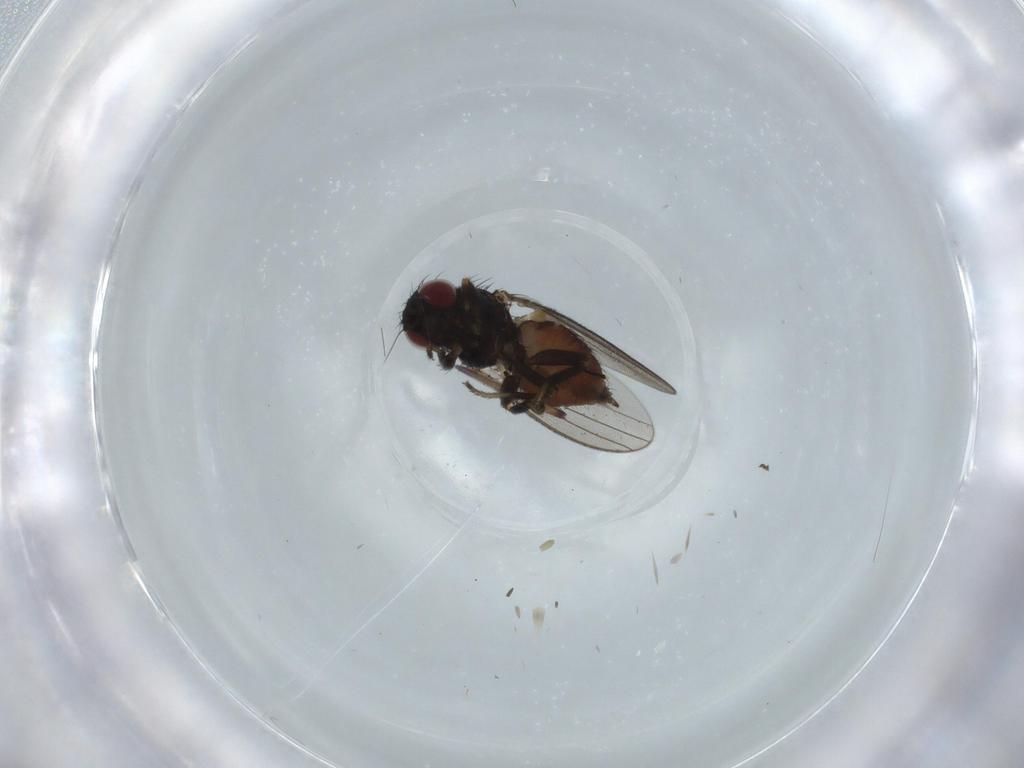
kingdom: Animalia
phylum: Arthropoda
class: Insecta
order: Diptera
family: Milichiidae
